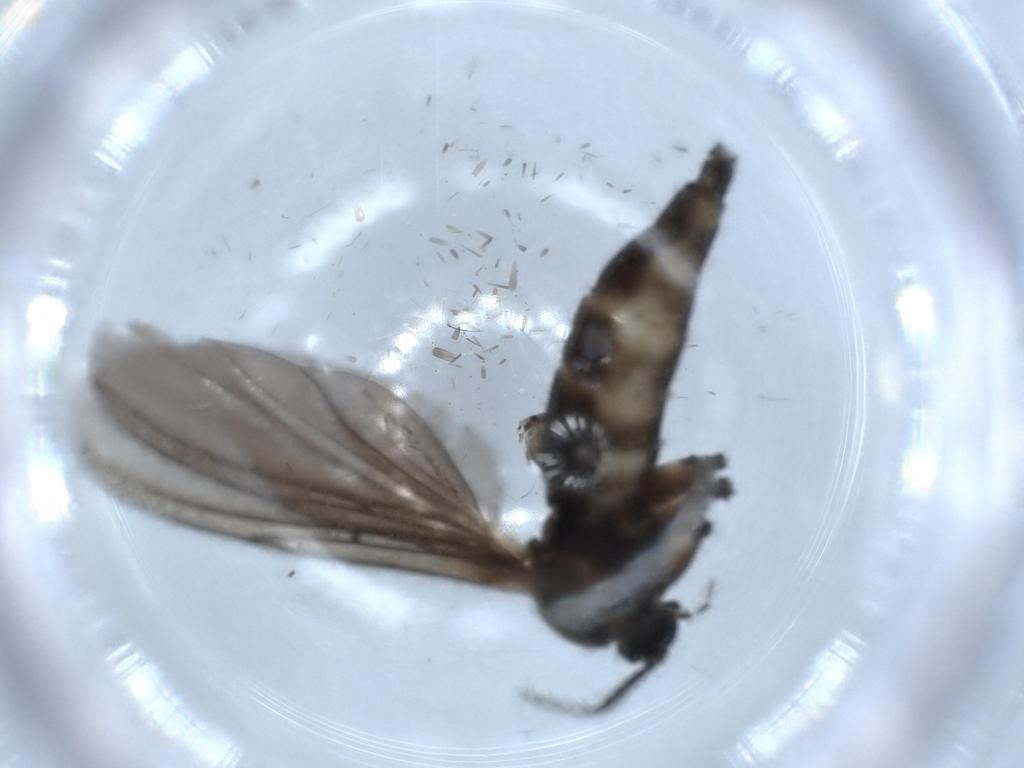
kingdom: Animalia
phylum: Arthropoda
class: Insecta
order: Diptera
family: Sciaridae
